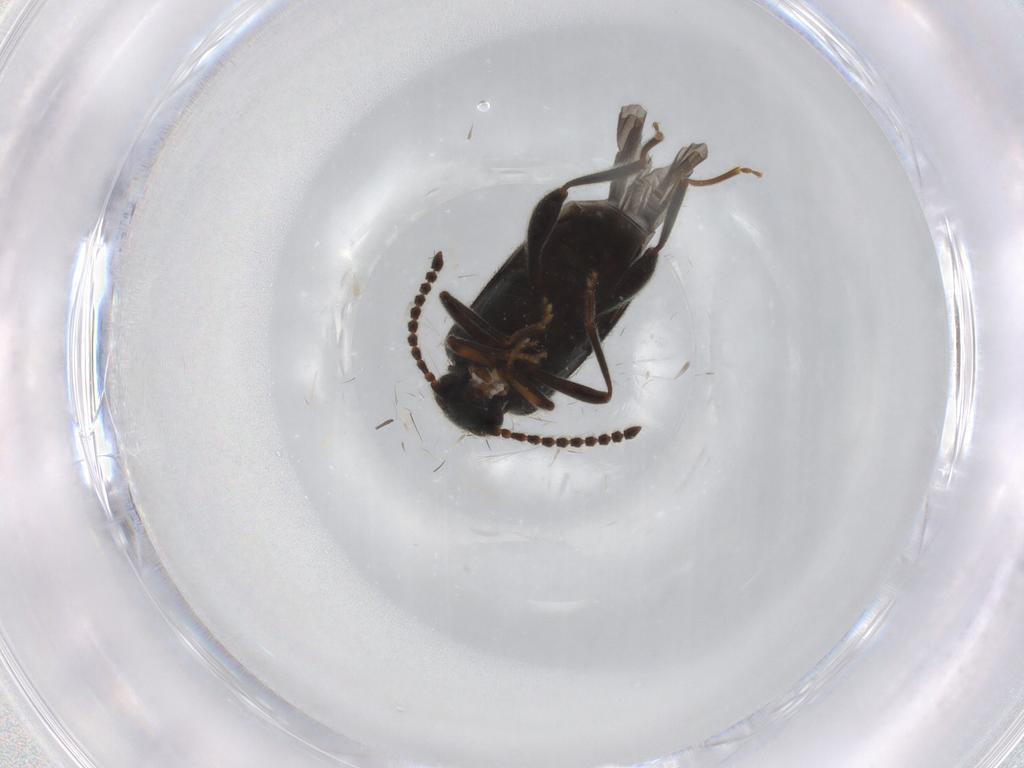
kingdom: Animalia
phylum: Arthropoda
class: Insecta
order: Coleoptera
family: Aderidae
